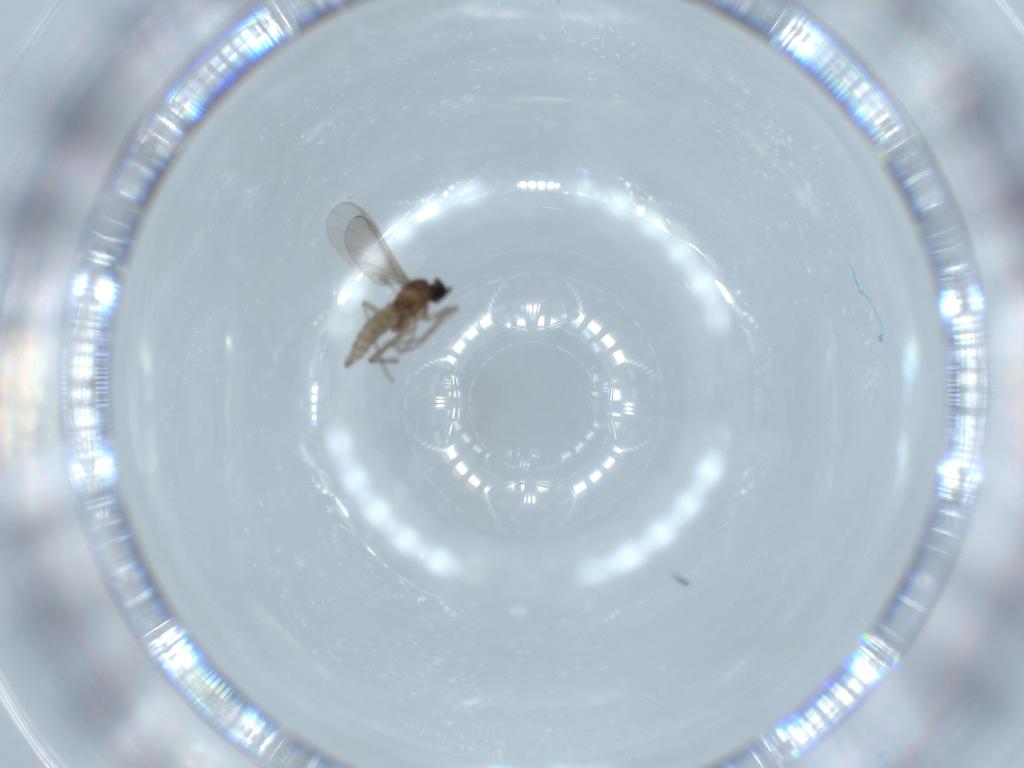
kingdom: Animalia
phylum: Arthropoda
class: Insecta
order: Diptera
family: Sciaridae
